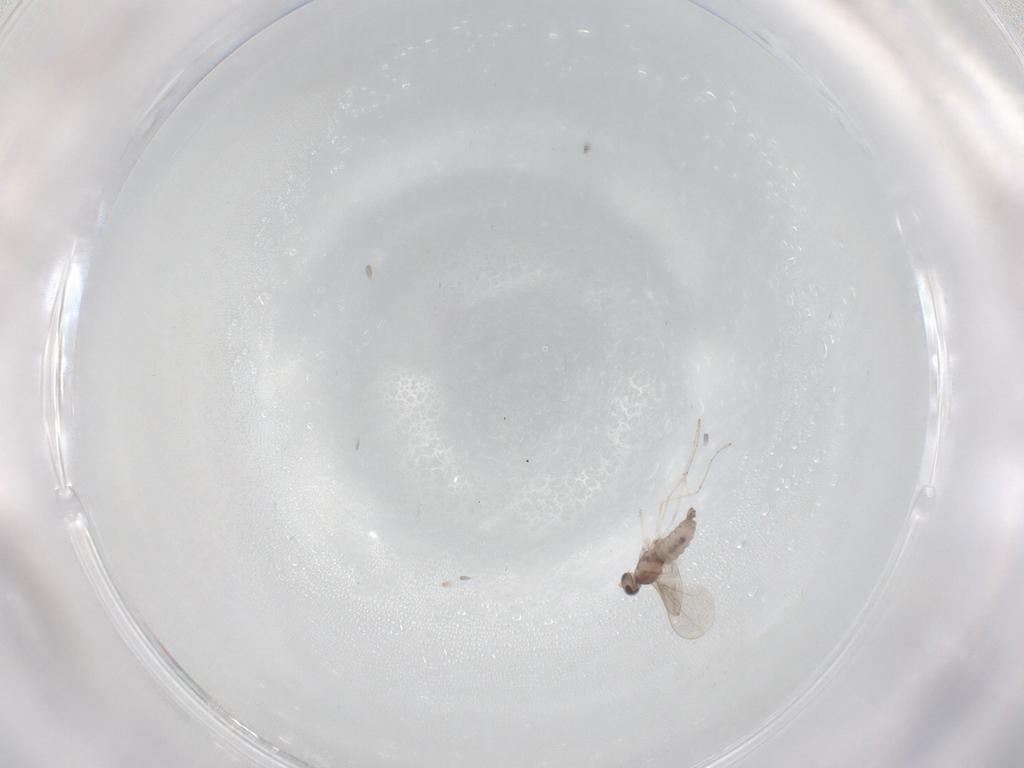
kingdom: Animalia
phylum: Arthropoda
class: Insecta
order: Diptera
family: Cecidomyiidae
